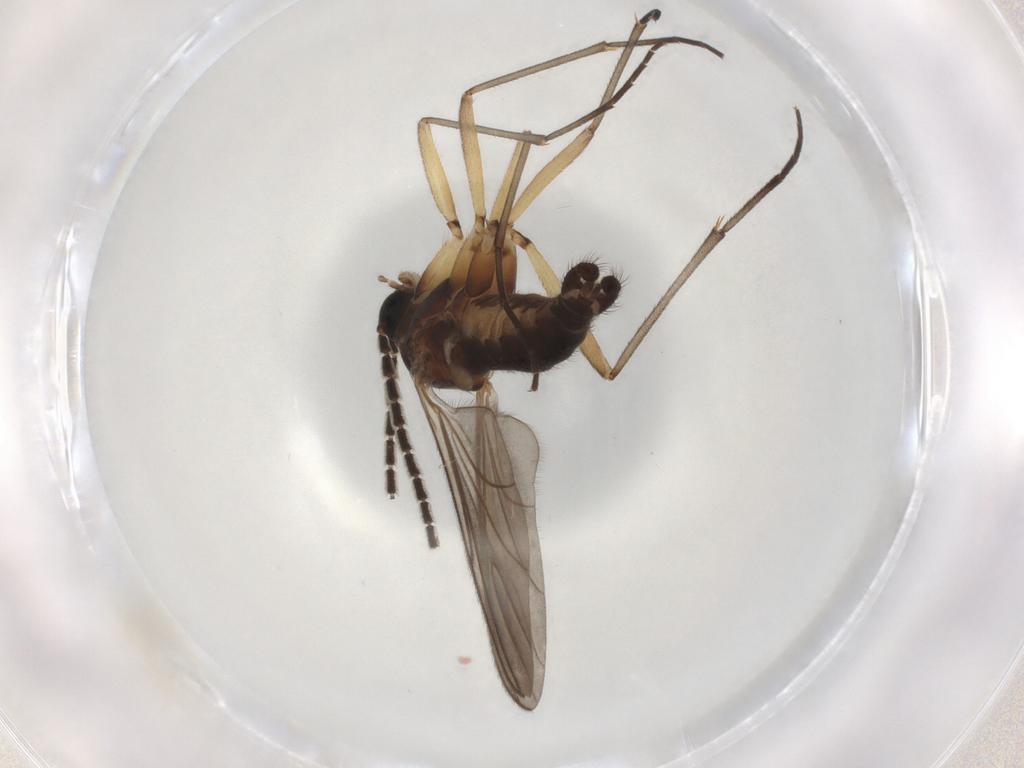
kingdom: Animalia
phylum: Arthropoda
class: Insecta
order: Diptera
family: Sciaridae
